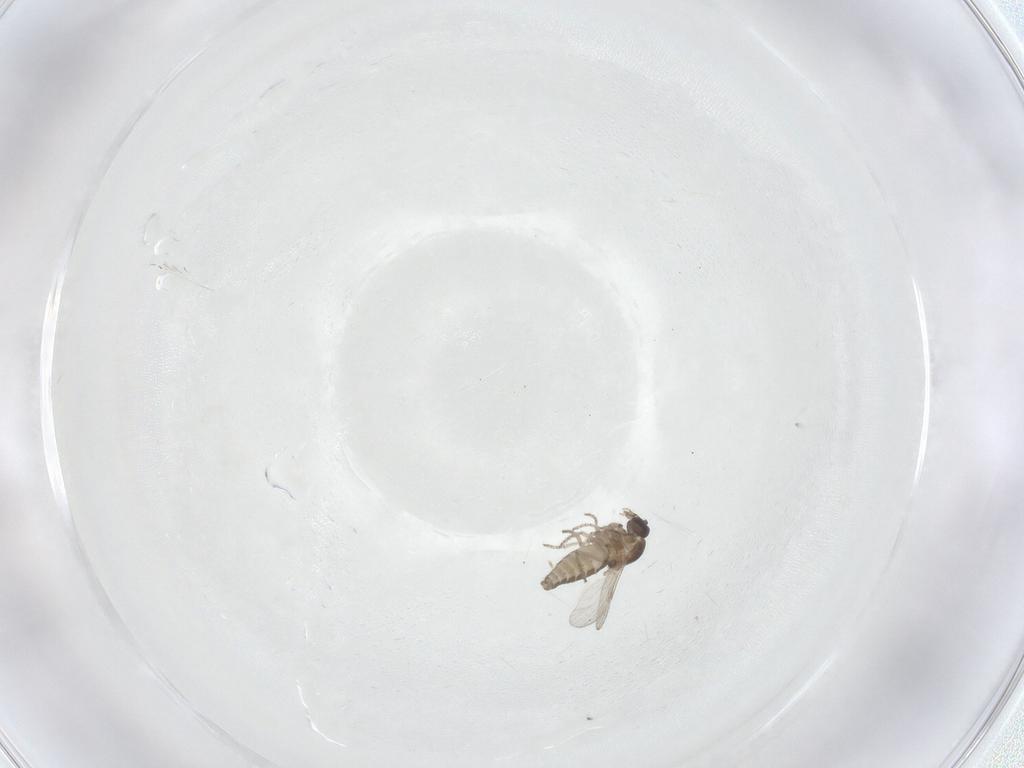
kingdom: Animalia
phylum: Arthropoda
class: Insecta
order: Diptera
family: Ceratopogonidae
